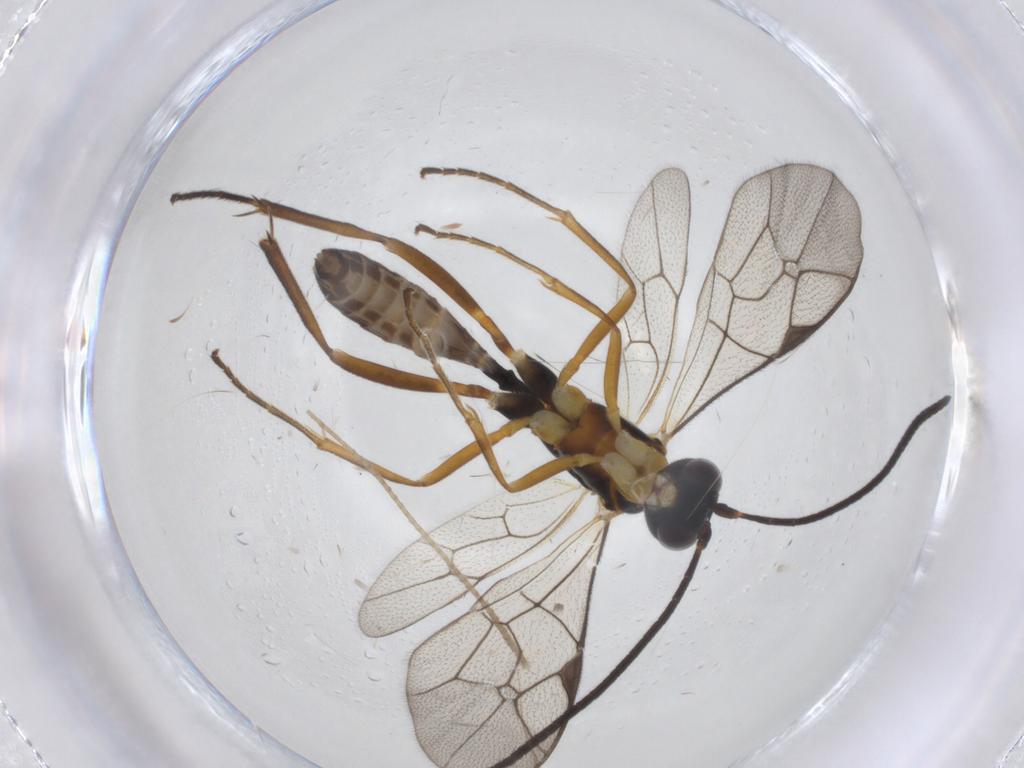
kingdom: Animalia
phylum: Arthropoda
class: Insecta
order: Hymenoptera
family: Ichneumonidae
